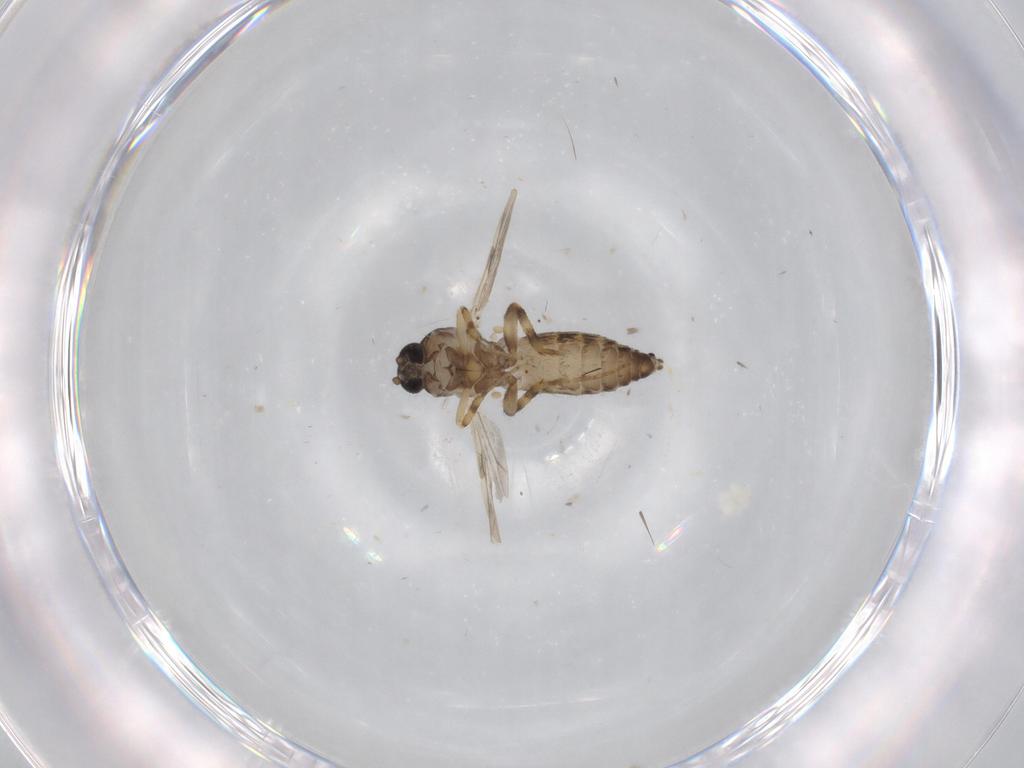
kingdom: Animalia
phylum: Arthropoda
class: Insecta
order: Diptera
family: Ceratopogonidae
